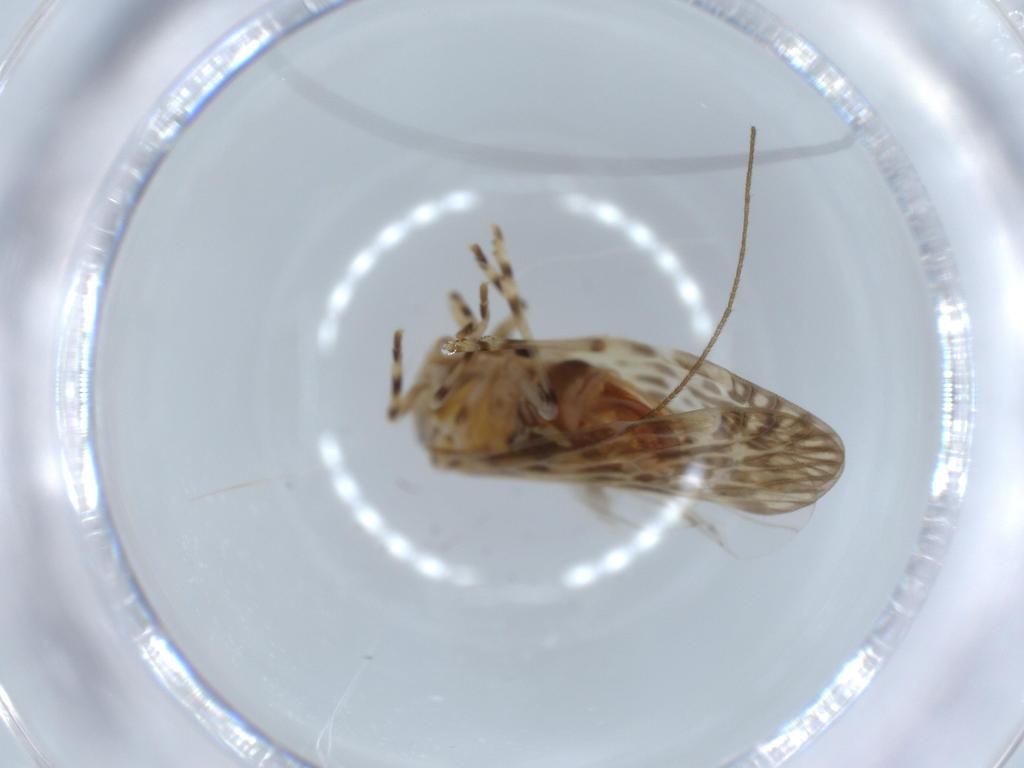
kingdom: Animalia
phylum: Arthropoda
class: Insecta
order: Hemiptera
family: Derbidae
